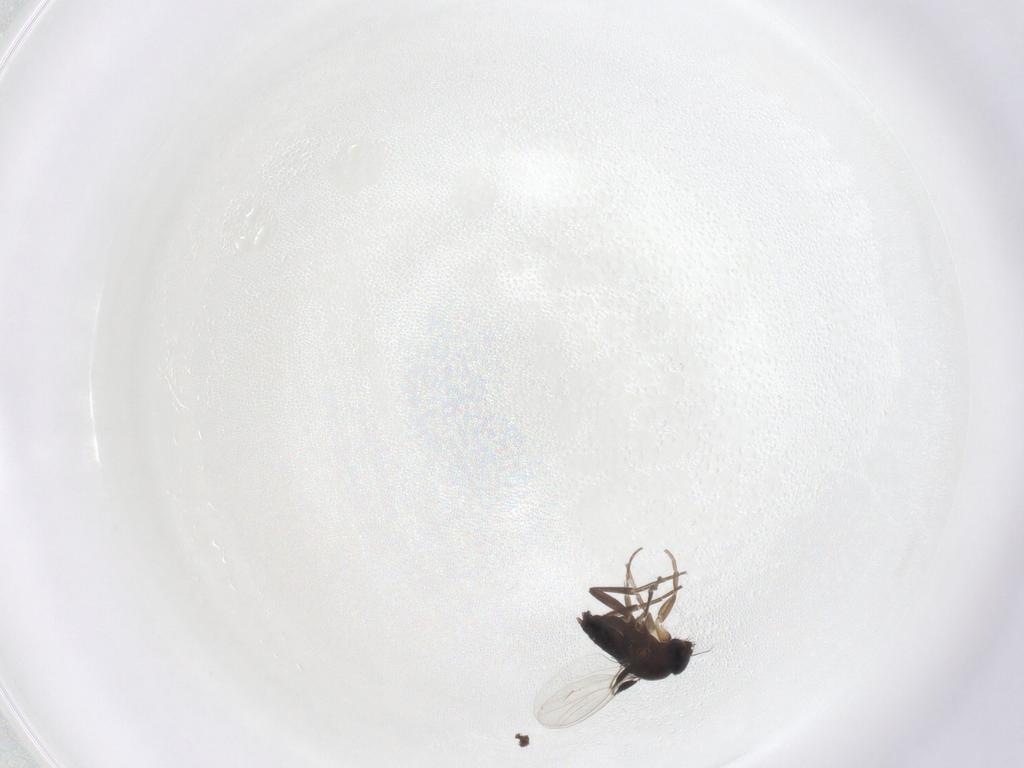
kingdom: Animalia
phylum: Arthropoda
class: Insecta
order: Diptera
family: Phoridae
